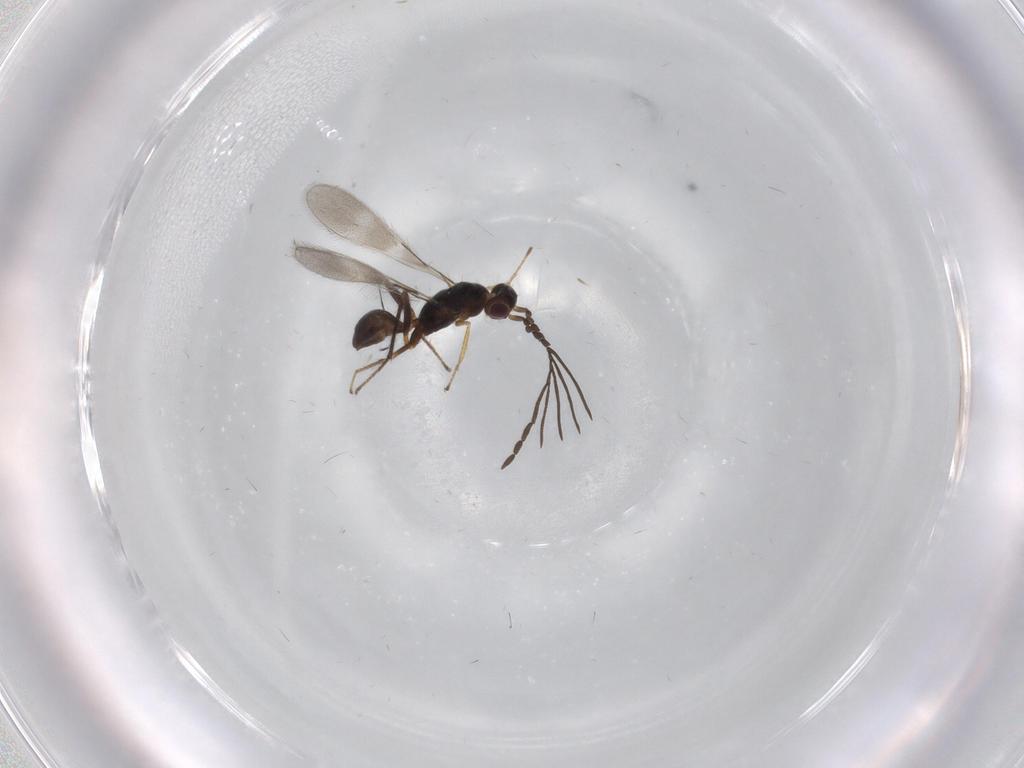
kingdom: Animalia
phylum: Arthropoda
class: Insecta
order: Hymenoptera
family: Mymaridae
